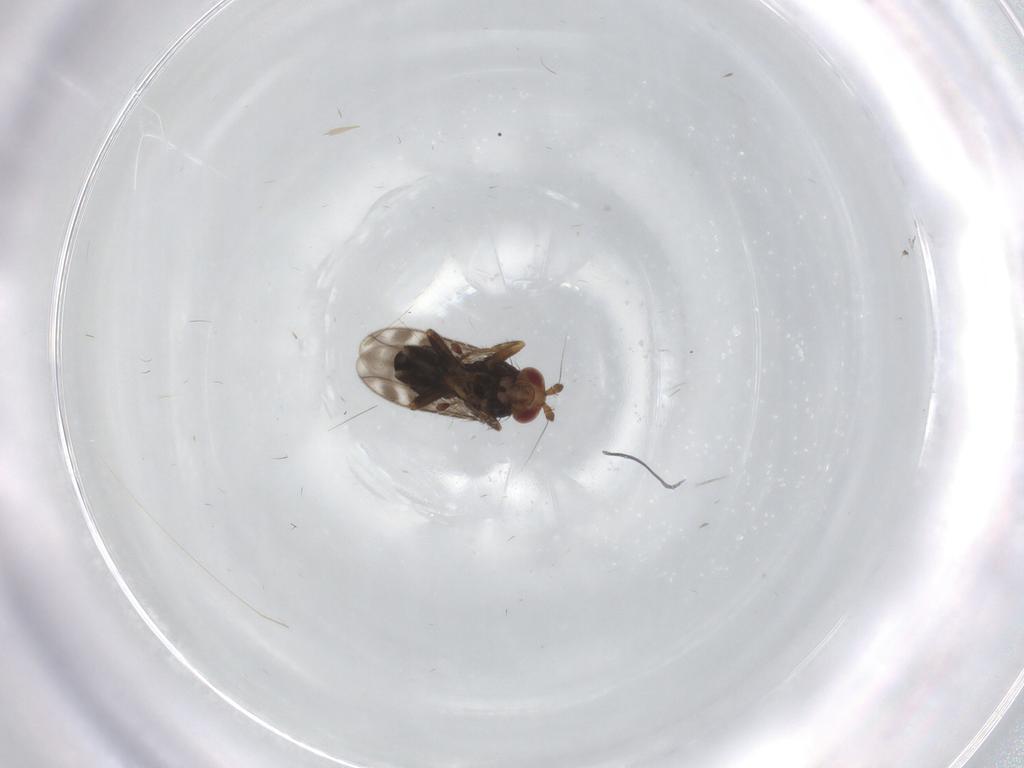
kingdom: Animalia
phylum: Arthropoda
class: Insecta
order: Diptera
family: Sphaeroceridae
